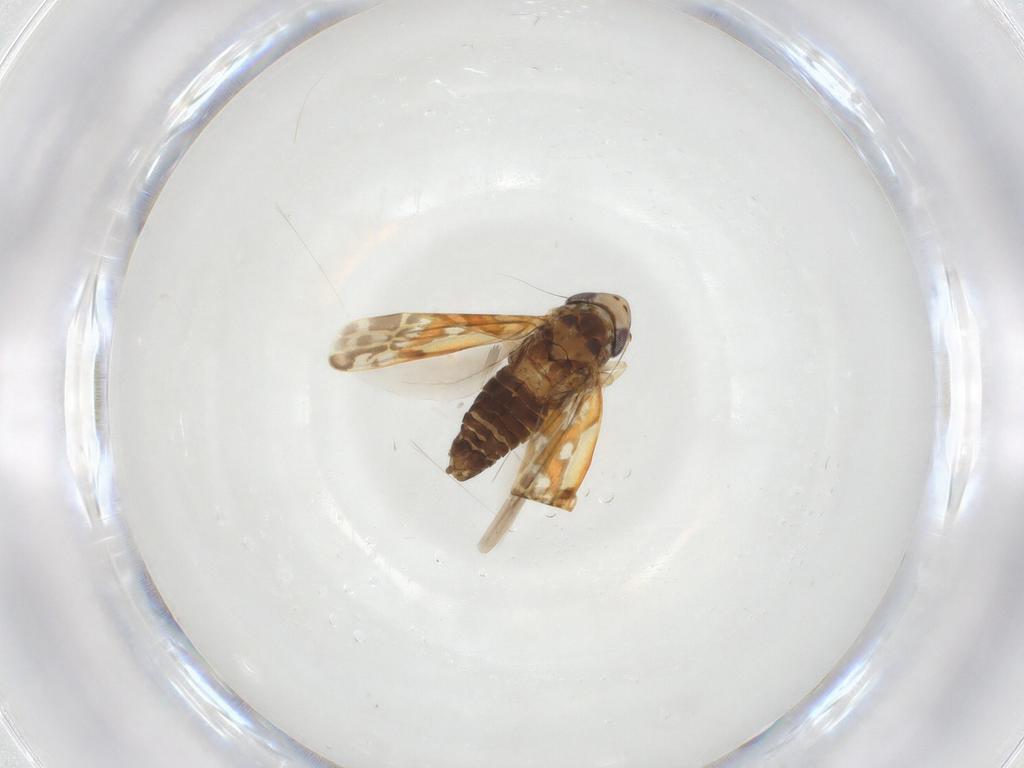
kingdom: Animalia
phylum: Arthropoda
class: Insecta
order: Hemiptera
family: Cicadellidae
